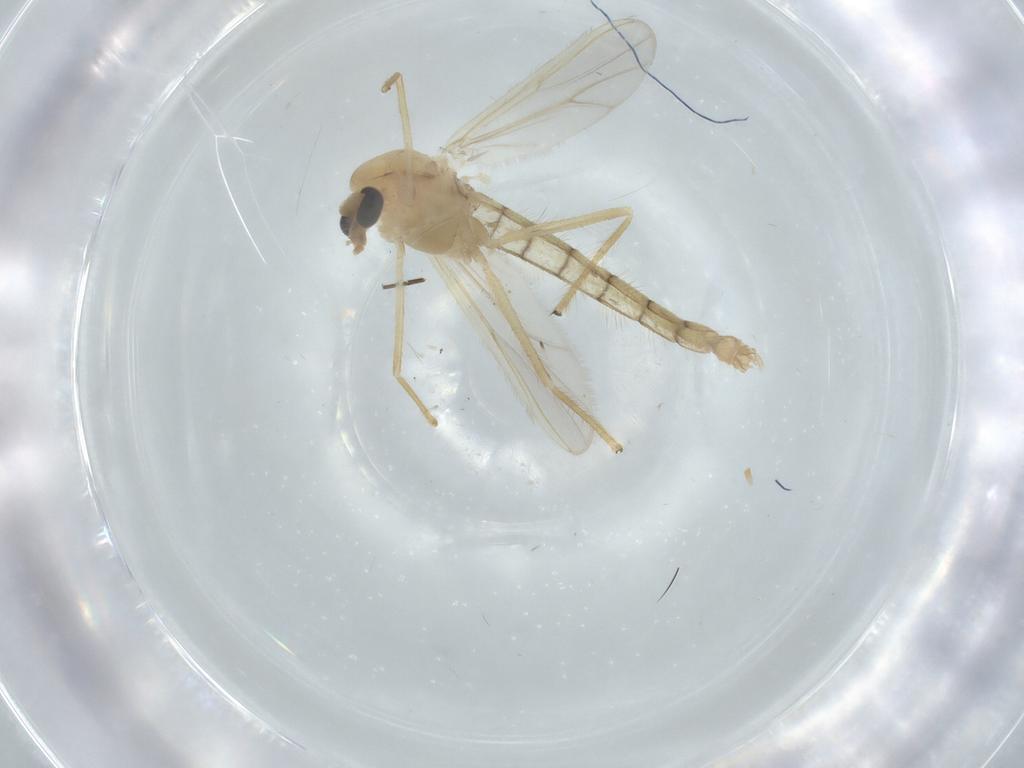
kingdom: Animalia
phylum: Arthropoda
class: Insecta
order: Diptera
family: Chironomidae
